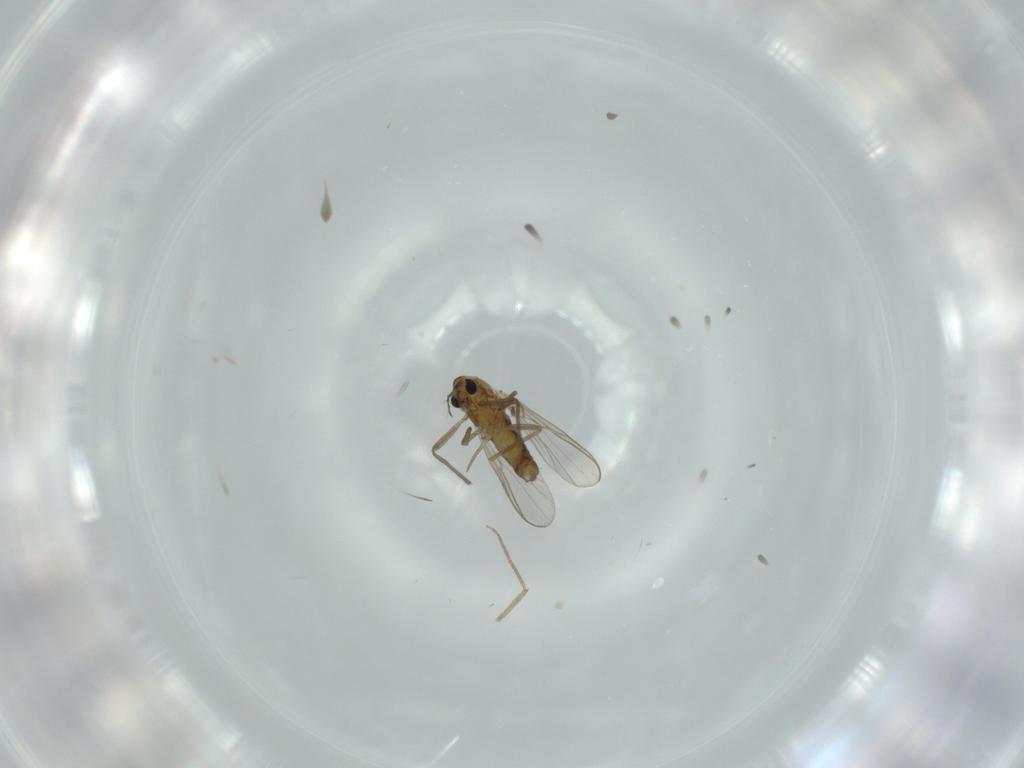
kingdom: Animalia
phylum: Arthropoda
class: Insecta
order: Diptera
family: Chironomidae
